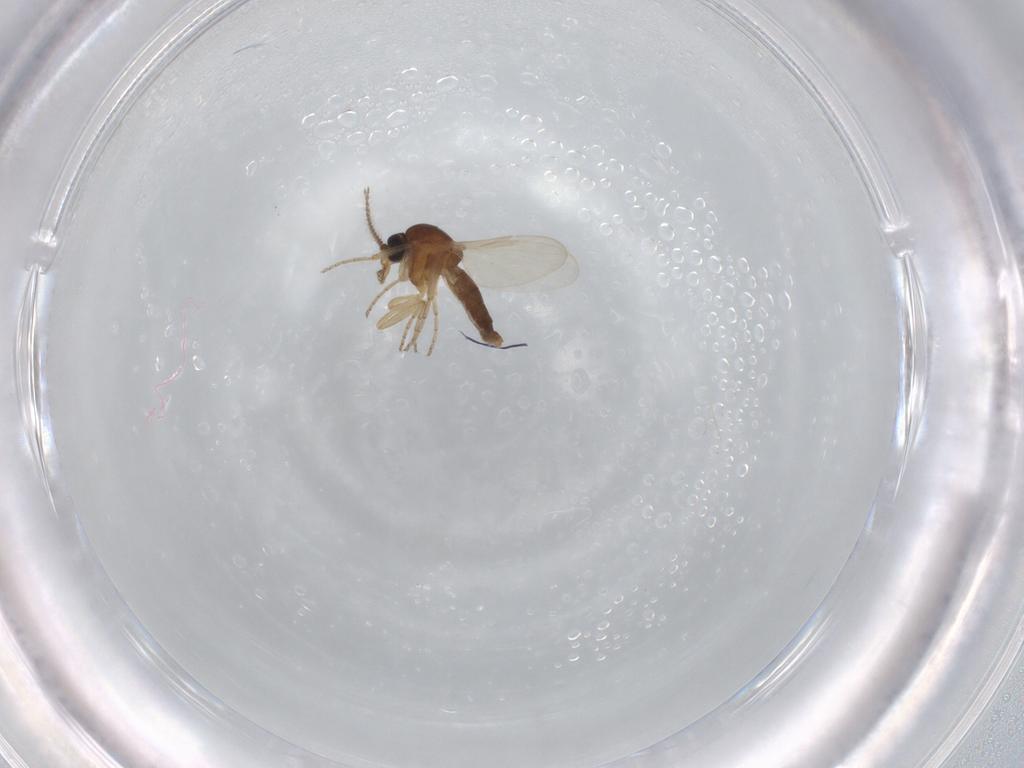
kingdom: Animalia
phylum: Arthropoda
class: Insecta
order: Diptera
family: Ceratopogonidae
